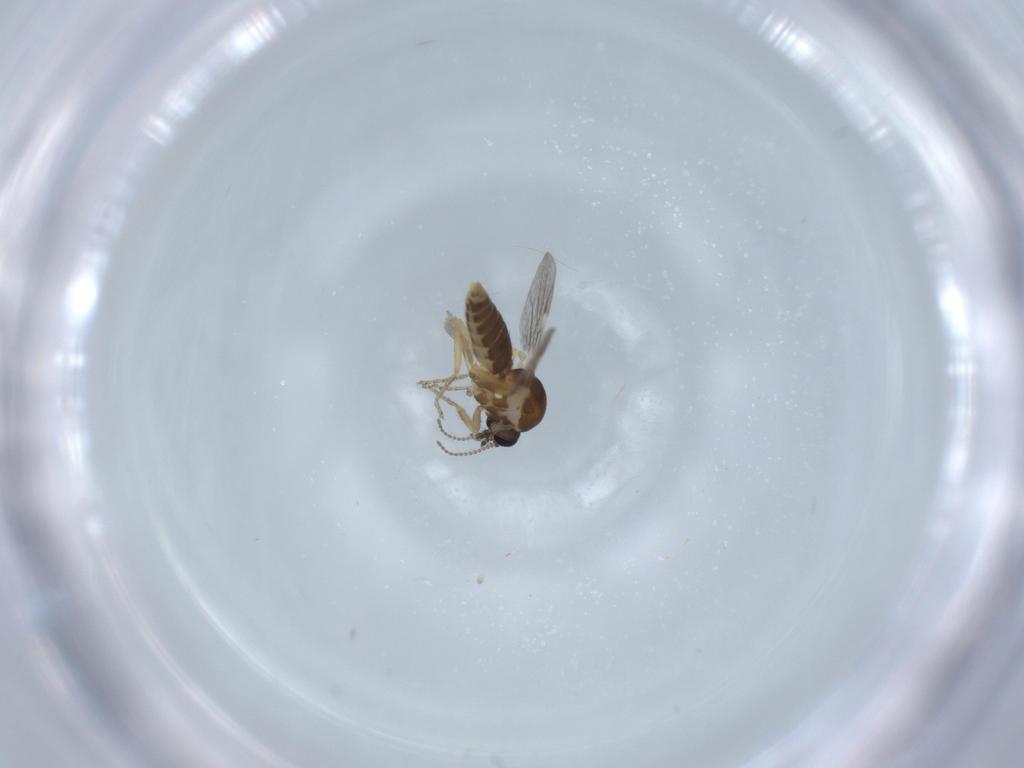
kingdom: Animalia
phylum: Arthropoda
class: Insecta
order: Diptera
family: Ceratopogonidae
